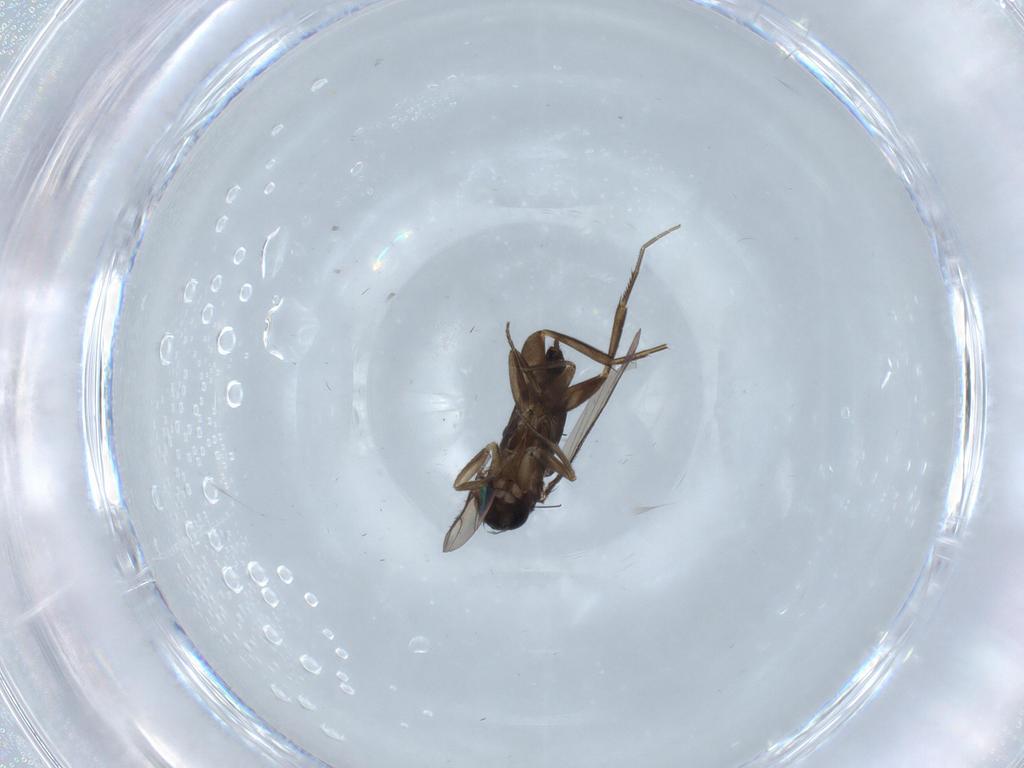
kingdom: Animalia
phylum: Arthropoda
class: Insecta
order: Diptera
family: Phoridae
